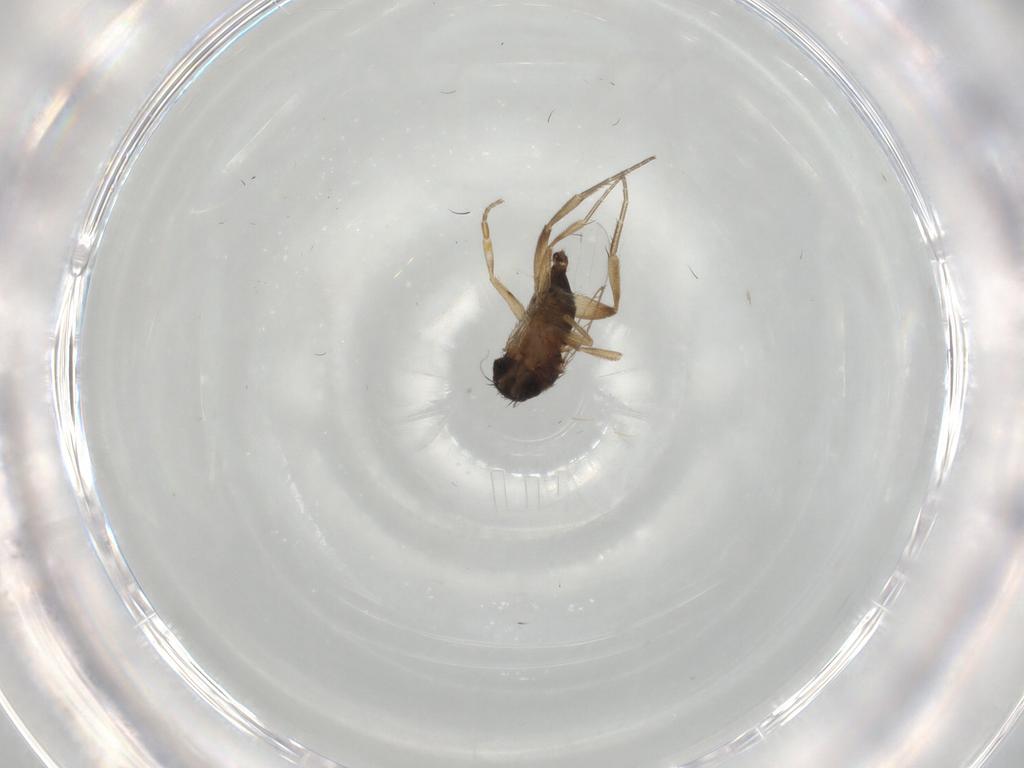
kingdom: Animalia
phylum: Arthropoda
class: Insecta
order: Diptera
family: Phoridae
